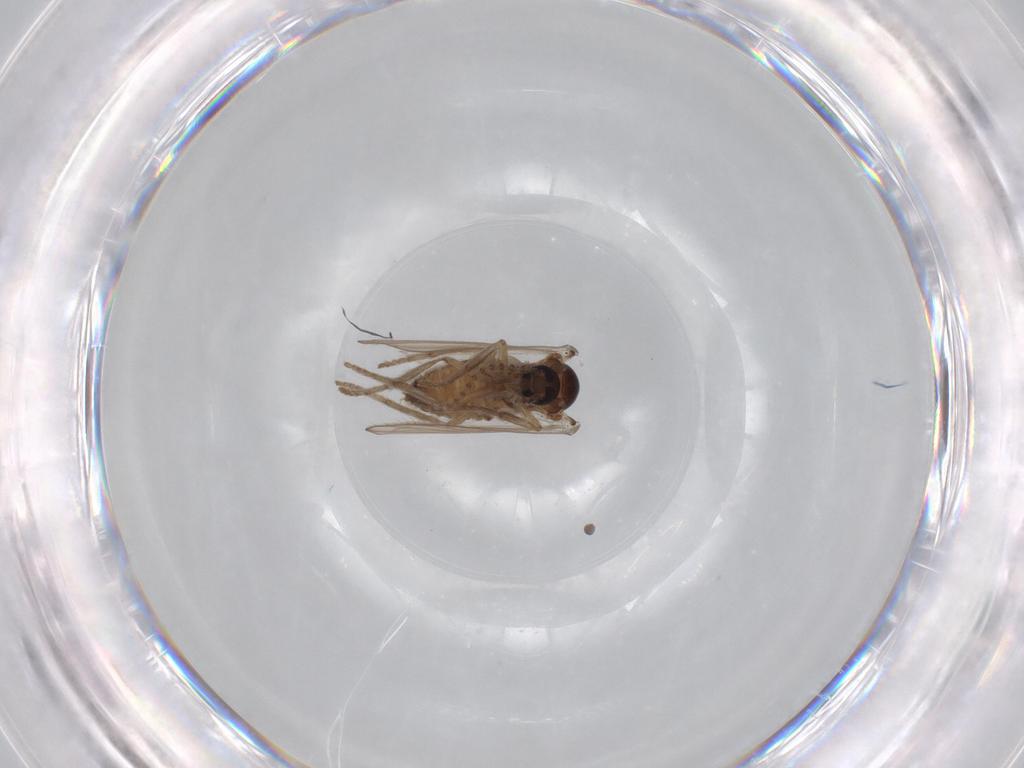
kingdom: Animalia
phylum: Arthropoda
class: Insecta
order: Diptera
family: Psychodidae
